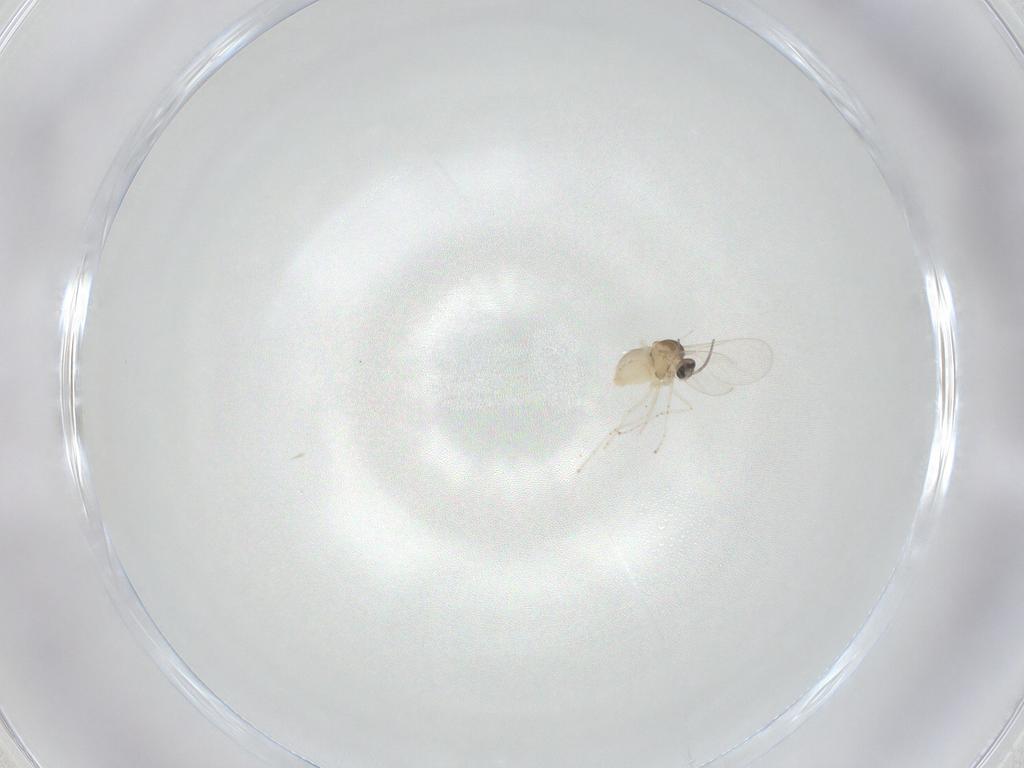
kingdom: Animalia
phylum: Arthropoda
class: Insecta
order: Diptera
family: Cecidomyiidae
